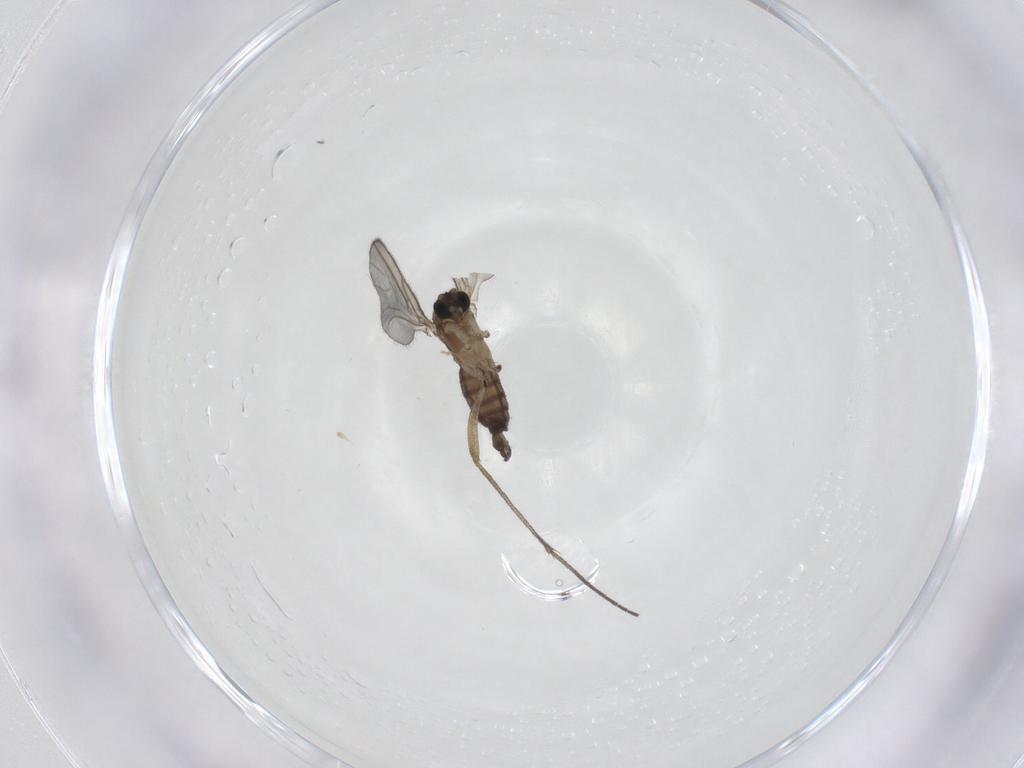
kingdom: Animalia
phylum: Arthropoda
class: Insecta
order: Diptera
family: Sciaridae
